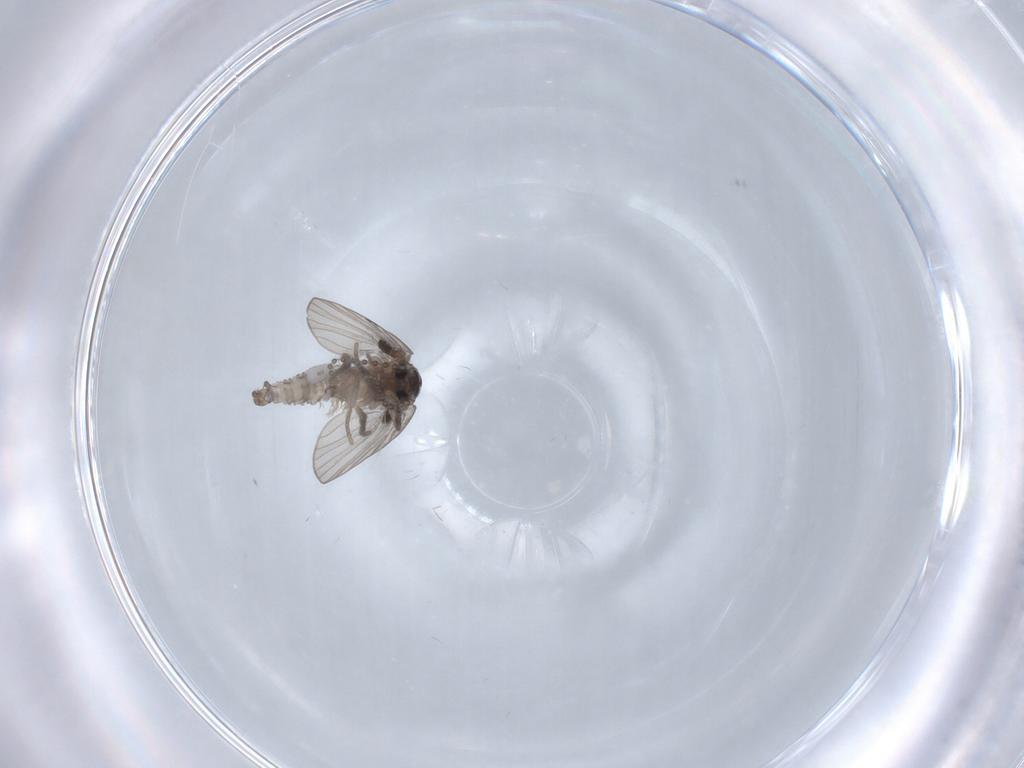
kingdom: Animalia
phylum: Arthropoda
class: Insecta
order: Diptera
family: Psychodidae
